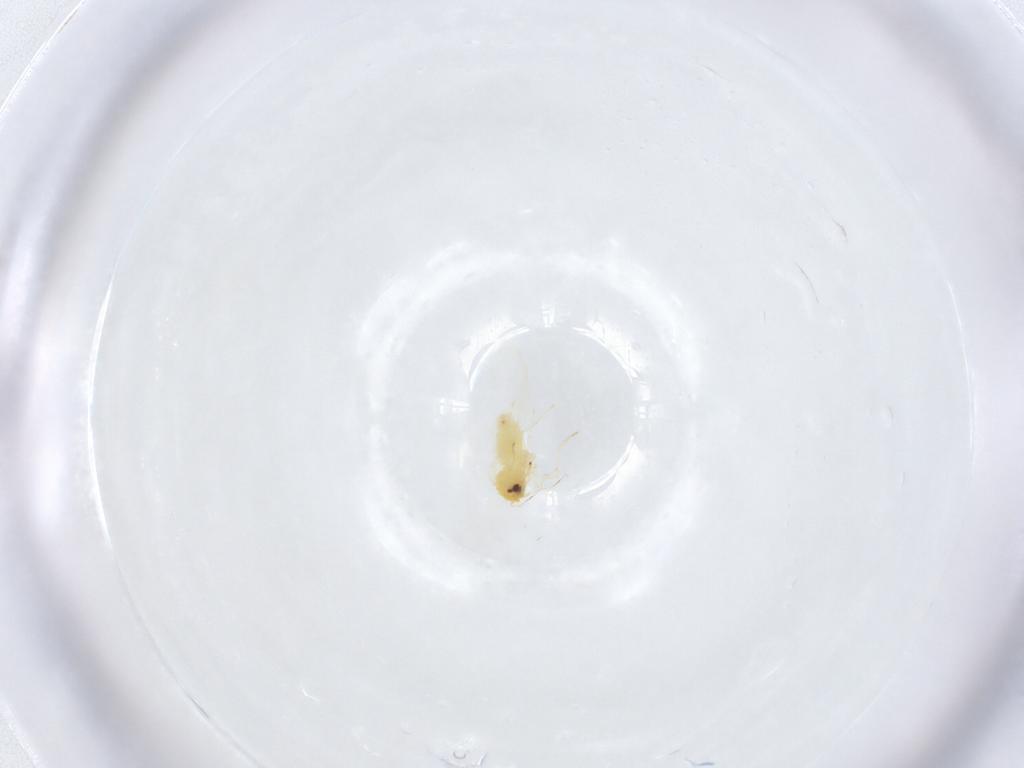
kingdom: Animalia
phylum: Arthropoda
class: Insecta
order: Hemiptera
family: Aleyrodidae
